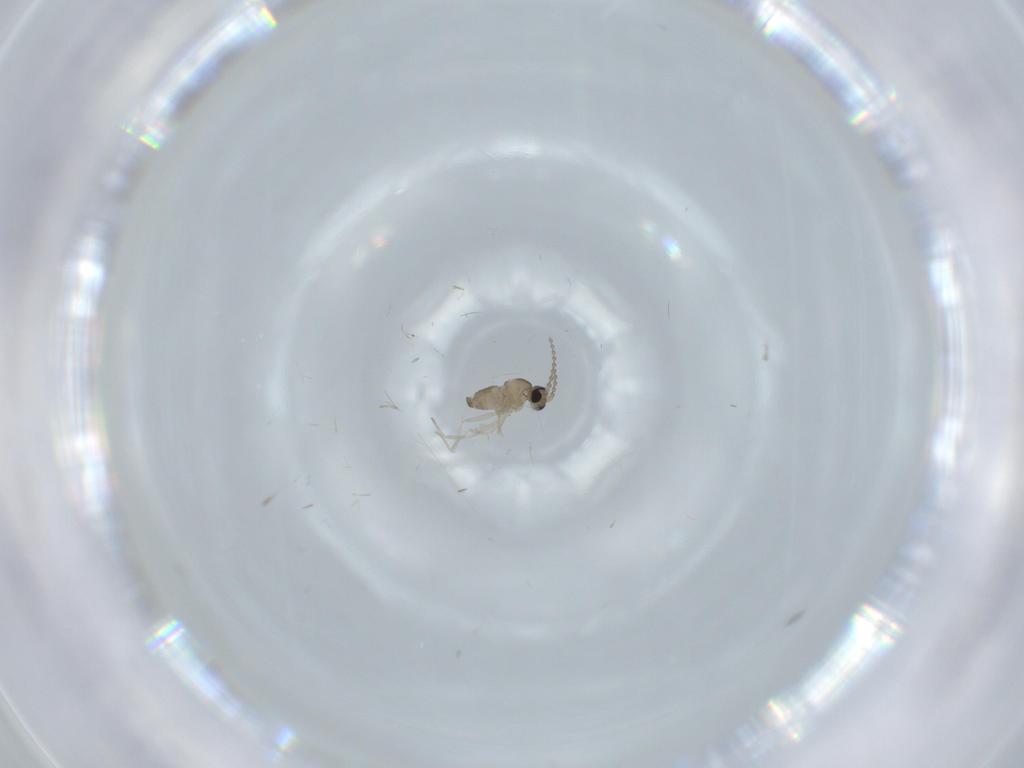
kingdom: Animalia
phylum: Arthropoda
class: Insecta
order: Diptera
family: Cecidomyiidae
